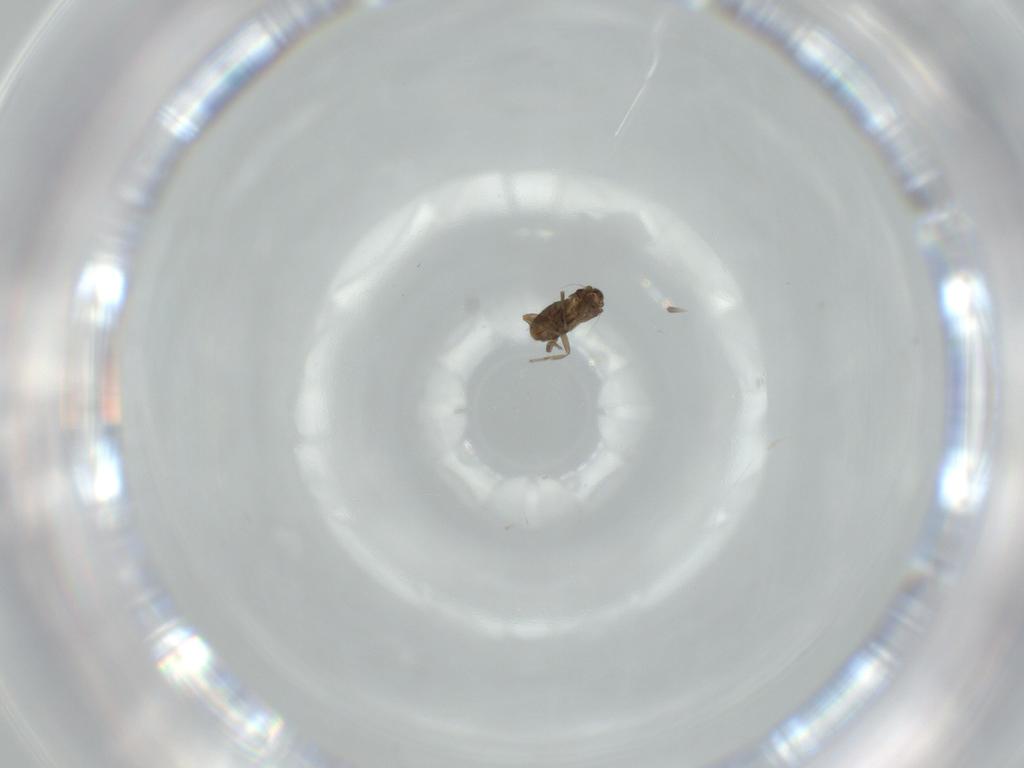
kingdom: Animalia
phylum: Arthropoda
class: Insecta
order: Diptera
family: Phoridae
